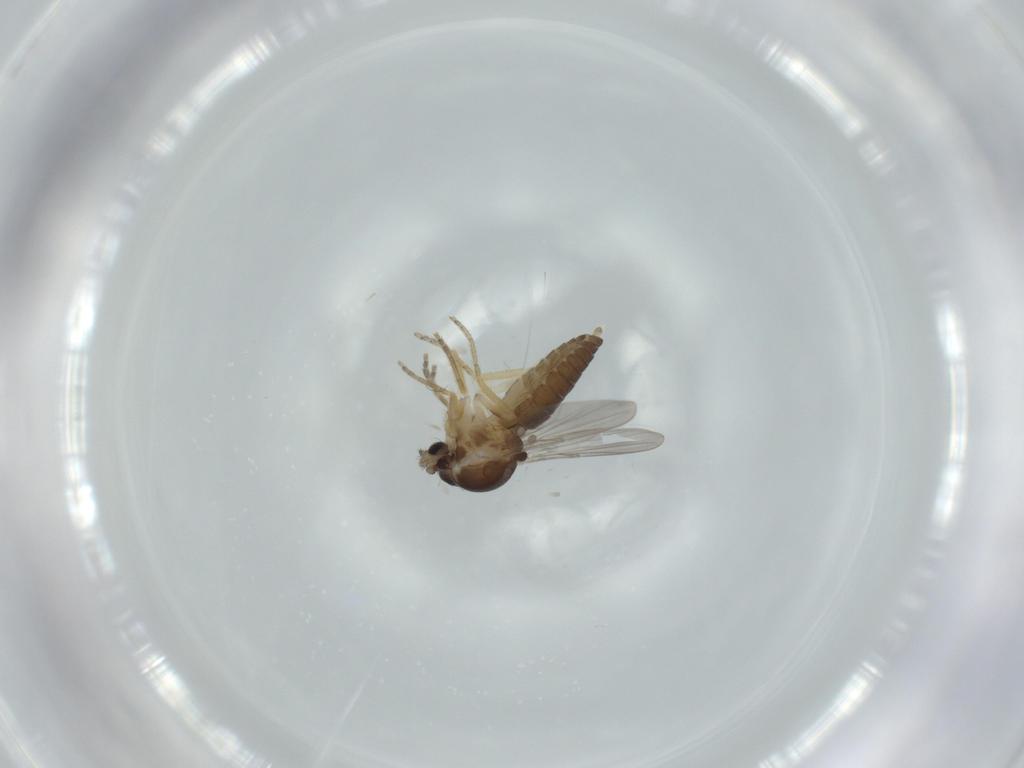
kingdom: Animalia
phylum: Arthropoda
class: Insecta
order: Diptera
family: Ceratopogonidae
